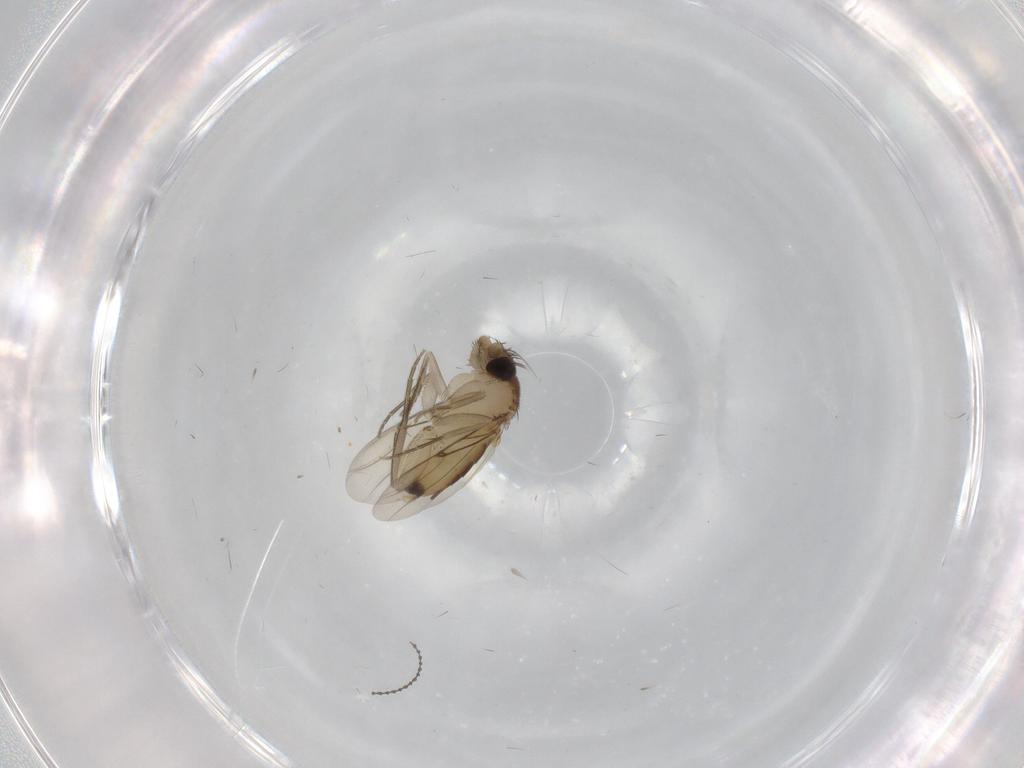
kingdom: Animalia
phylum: Arthropoda
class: Insecta
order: Diptera
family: Phoridae
